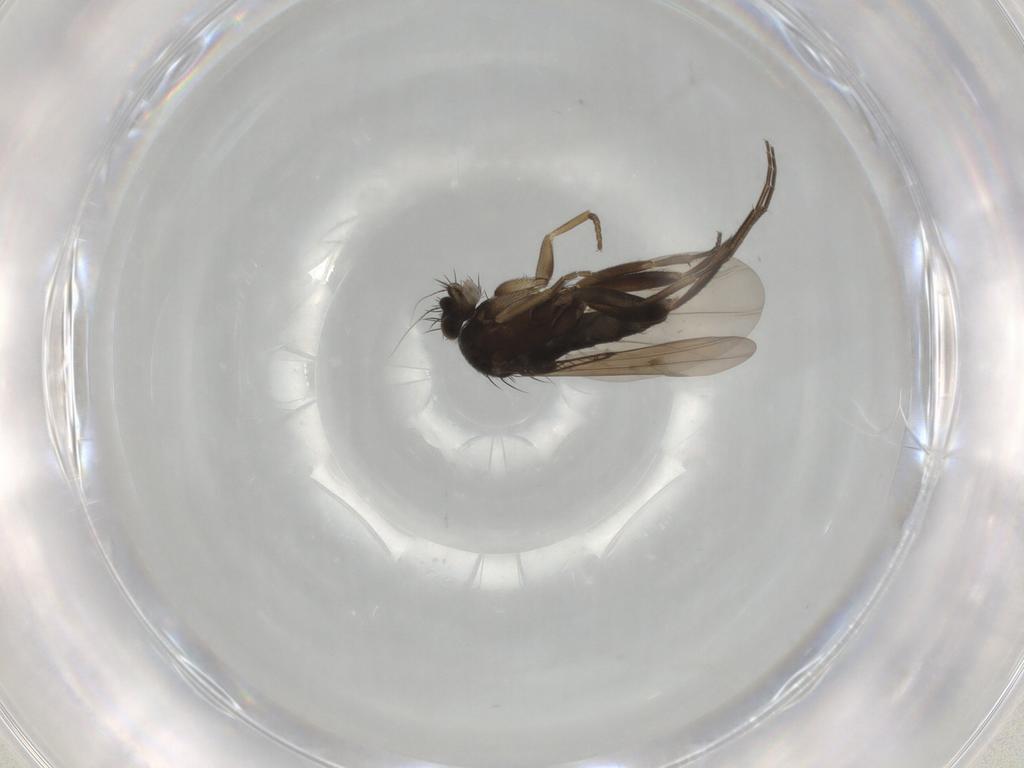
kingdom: Animalia
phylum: Arthropoda
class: Insecta
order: Diptera
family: Phoridae
